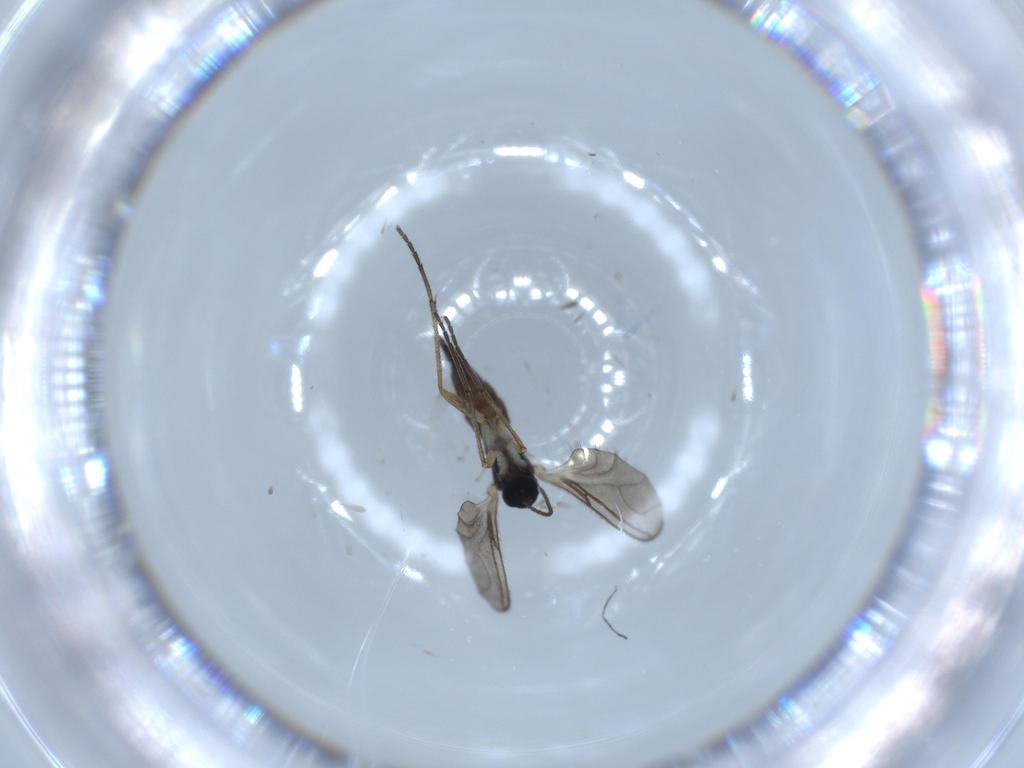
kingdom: Animalia
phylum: Arthropoda
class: Insecta
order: Diptera
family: Sciaridae
